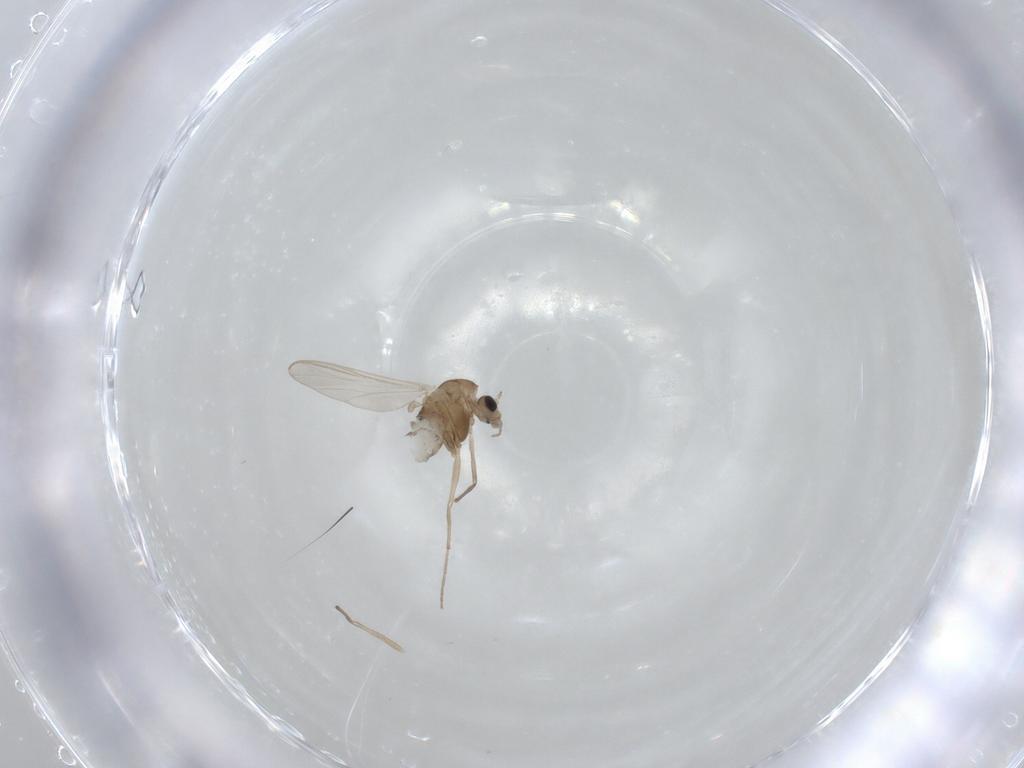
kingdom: Animalia
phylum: Arthropoda
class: Insecta
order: Diptera
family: Chironomidae
